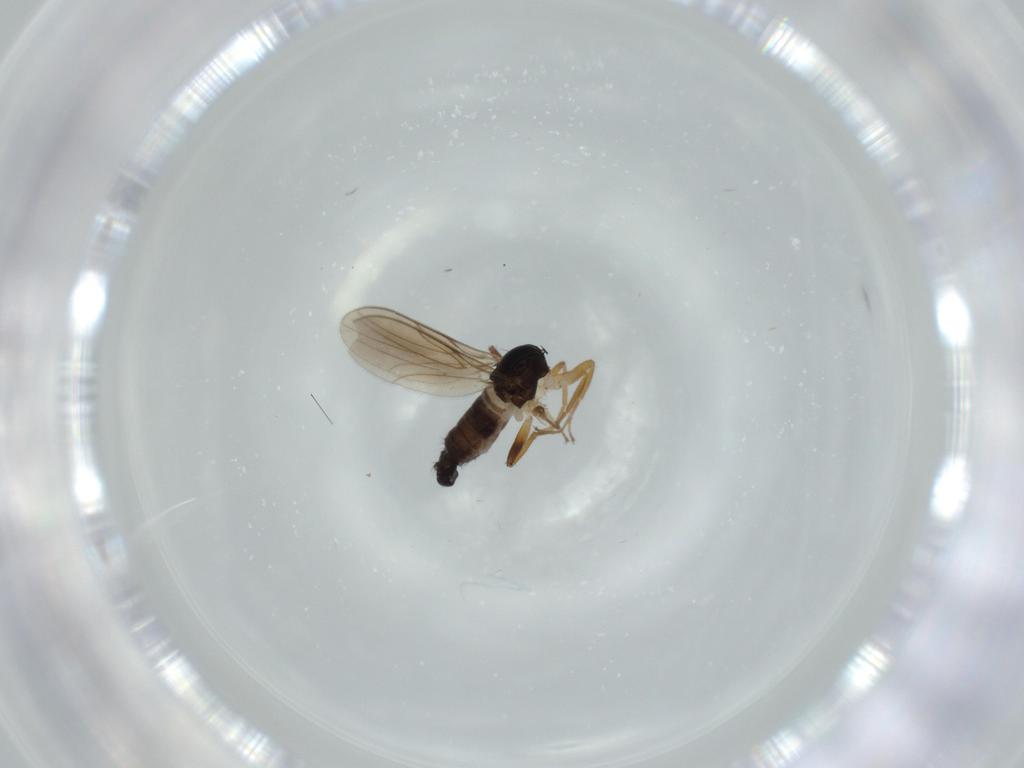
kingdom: Animalia
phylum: Arthropoda
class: Insecta
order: Diptera
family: Hybotidae
